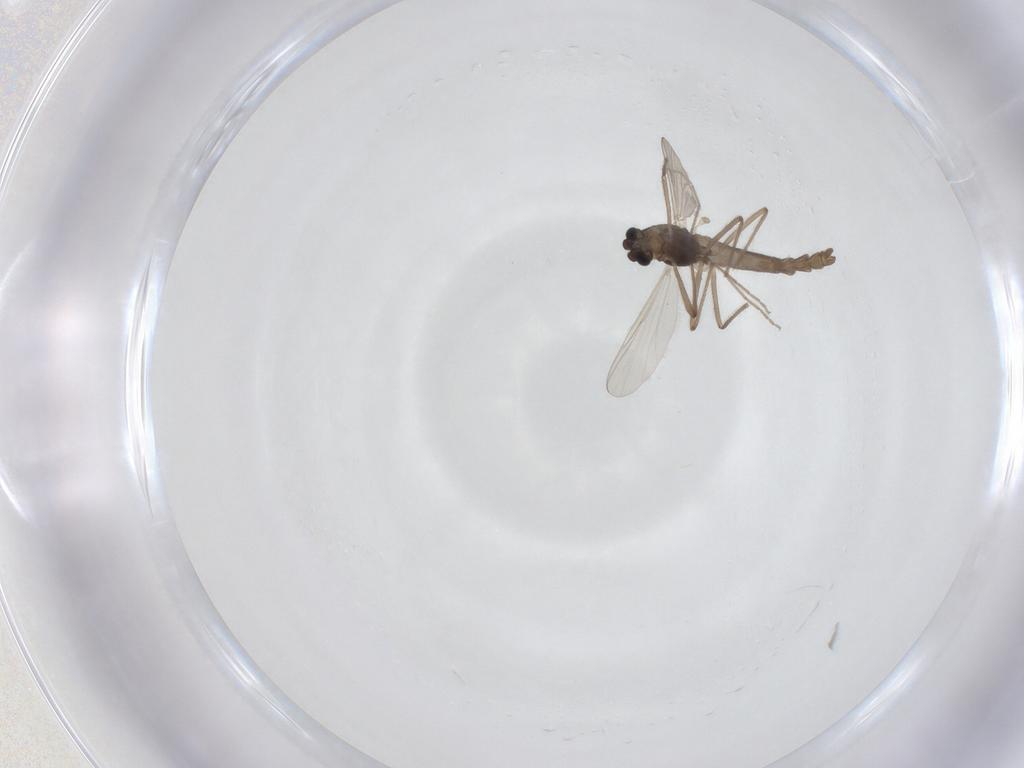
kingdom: Animalia
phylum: Arthropoda
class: Insecta
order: Diptera
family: Chironomidae
